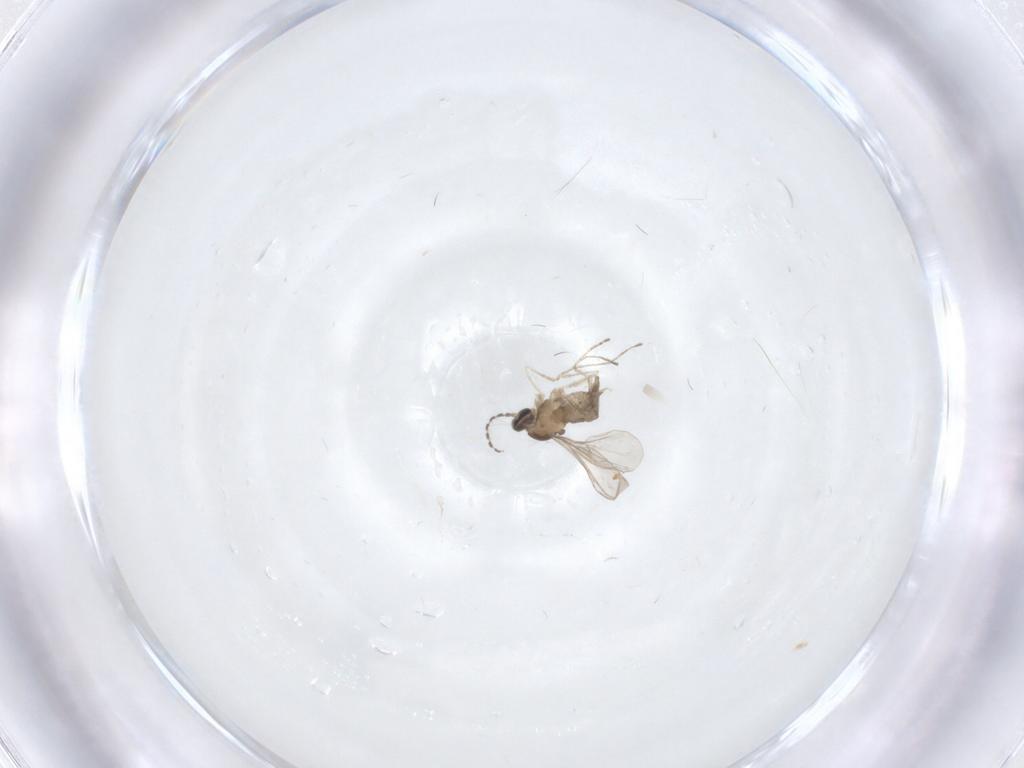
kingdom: Animalia
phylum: Arthropoda
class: Insecta
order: Diptera
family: Cecidomyiidae
